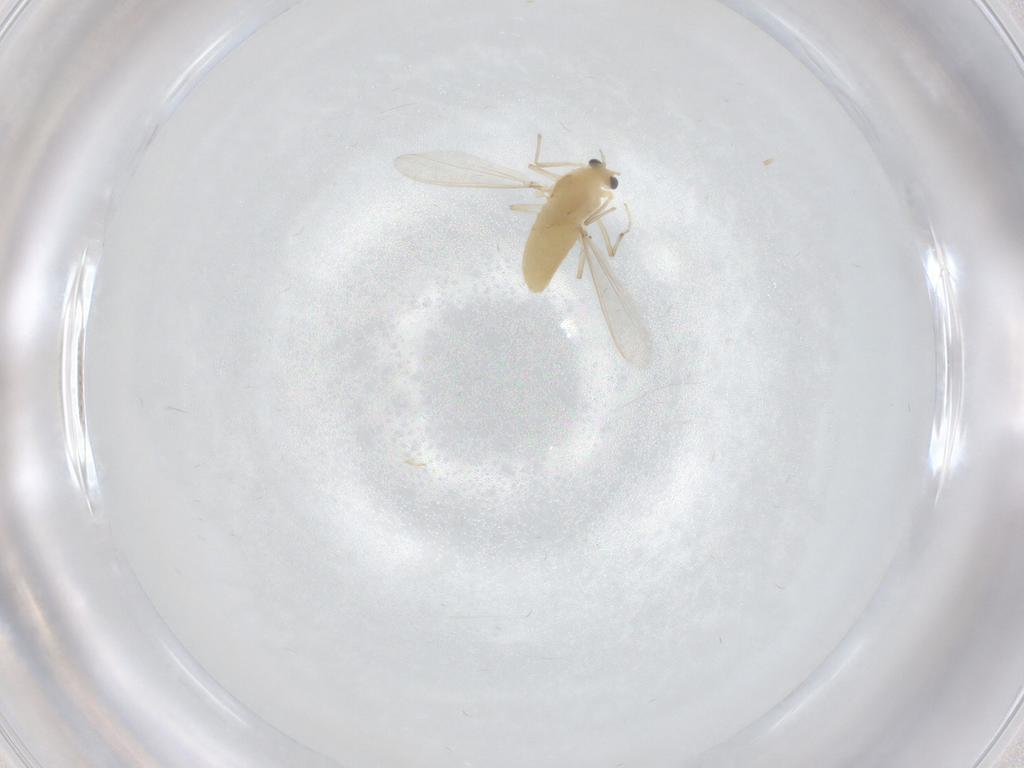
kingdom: Animalia
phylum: Arthropoda
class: Insecta
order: Diptera
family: Chironomidae
